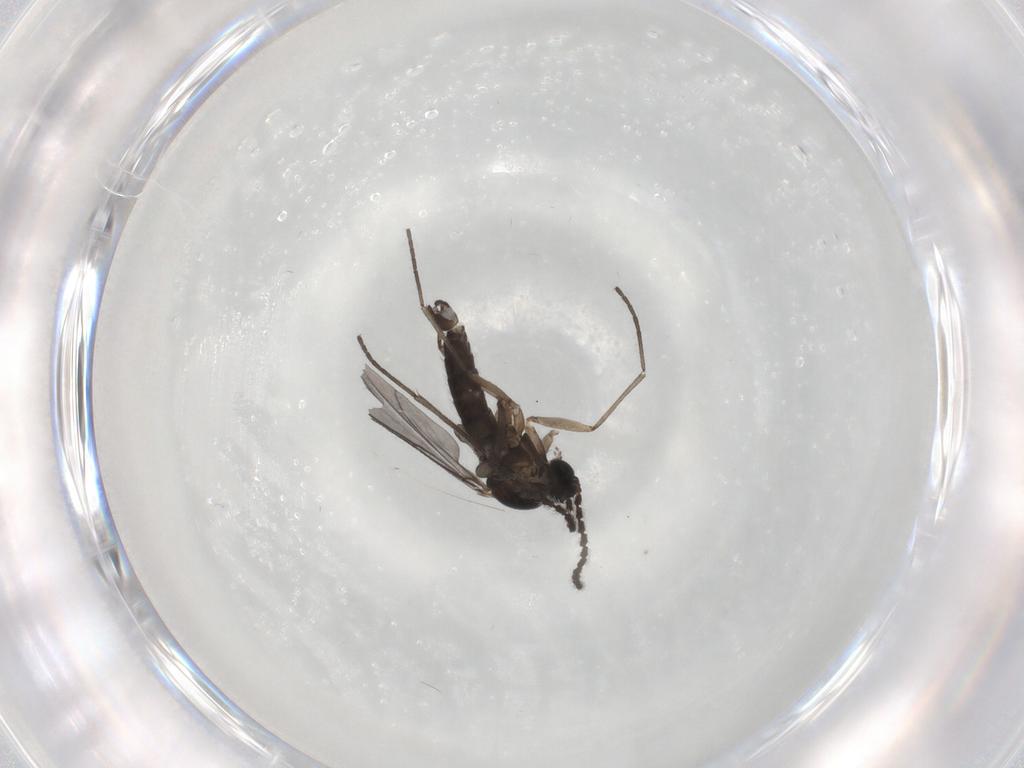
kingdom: Animalia
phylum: Arthropoda
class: Insecta
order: Diptera
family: Sciaridae
